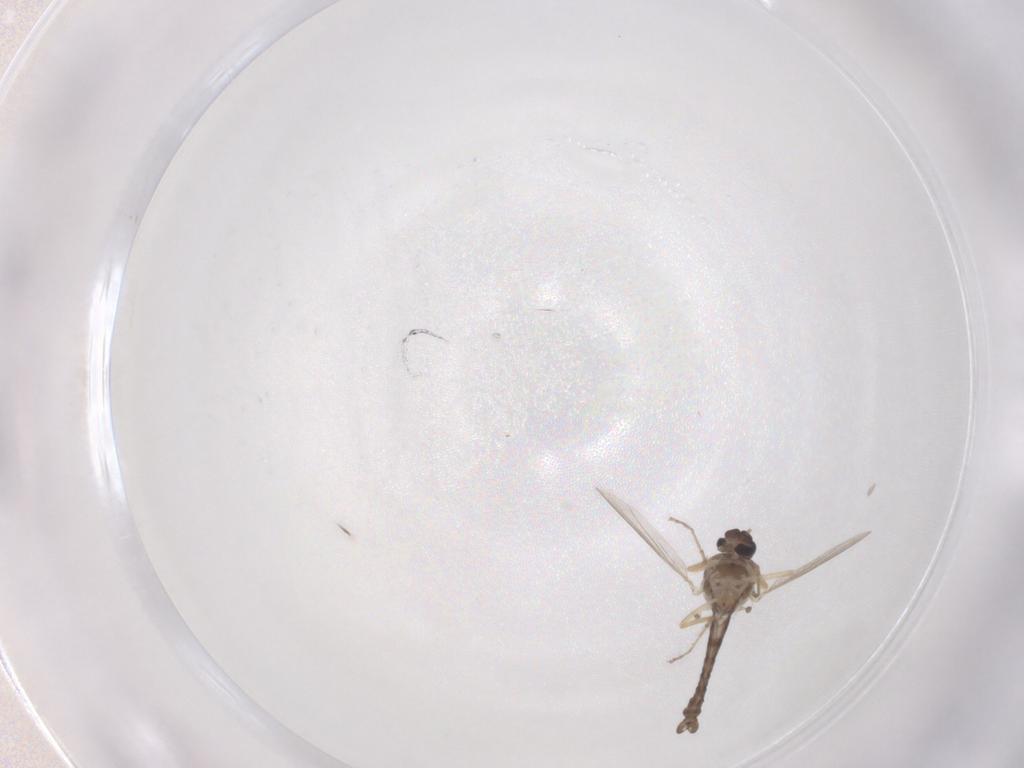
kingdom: Animalia
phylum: Arthropoda
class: Insecta
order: Diptera
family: Ceratopogonidae
